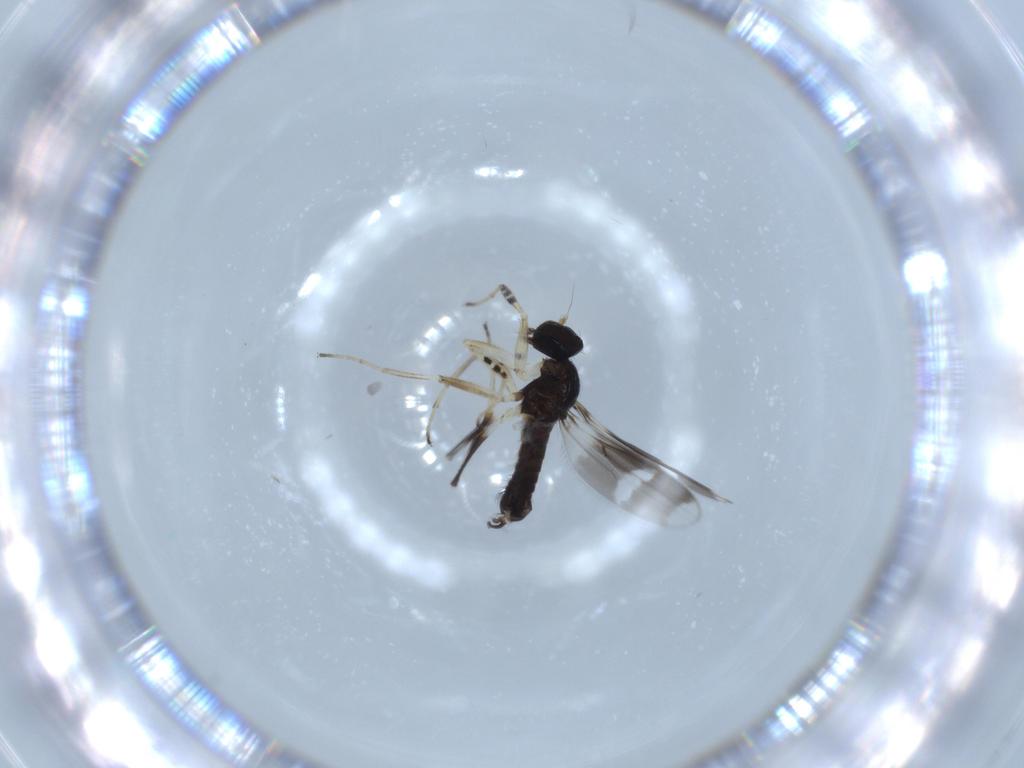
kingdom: Animalia
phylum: Arthropoda
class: Insecta
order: Diptera
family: Hybotidae
